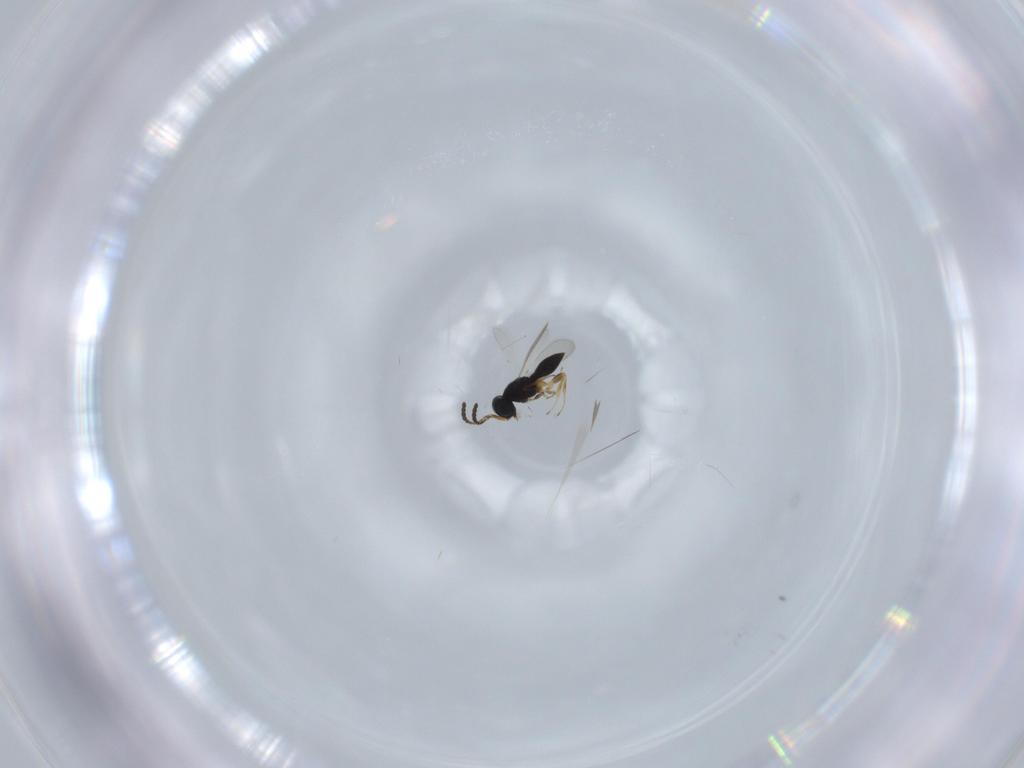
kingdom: Animalia
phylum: Arthropoda
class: Insecta
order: Hymenoptera
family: Scelionidae
